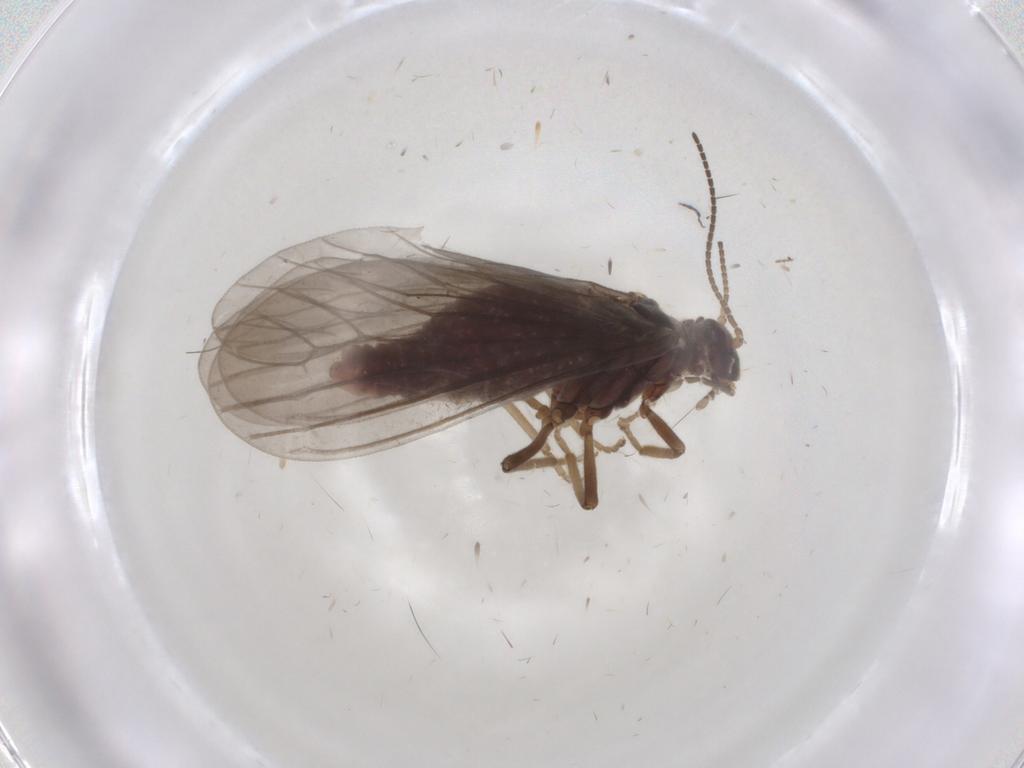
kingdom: Animalia
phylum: Arthropoda
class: Insecta
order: Neuroptera
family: Coniopterygidae
